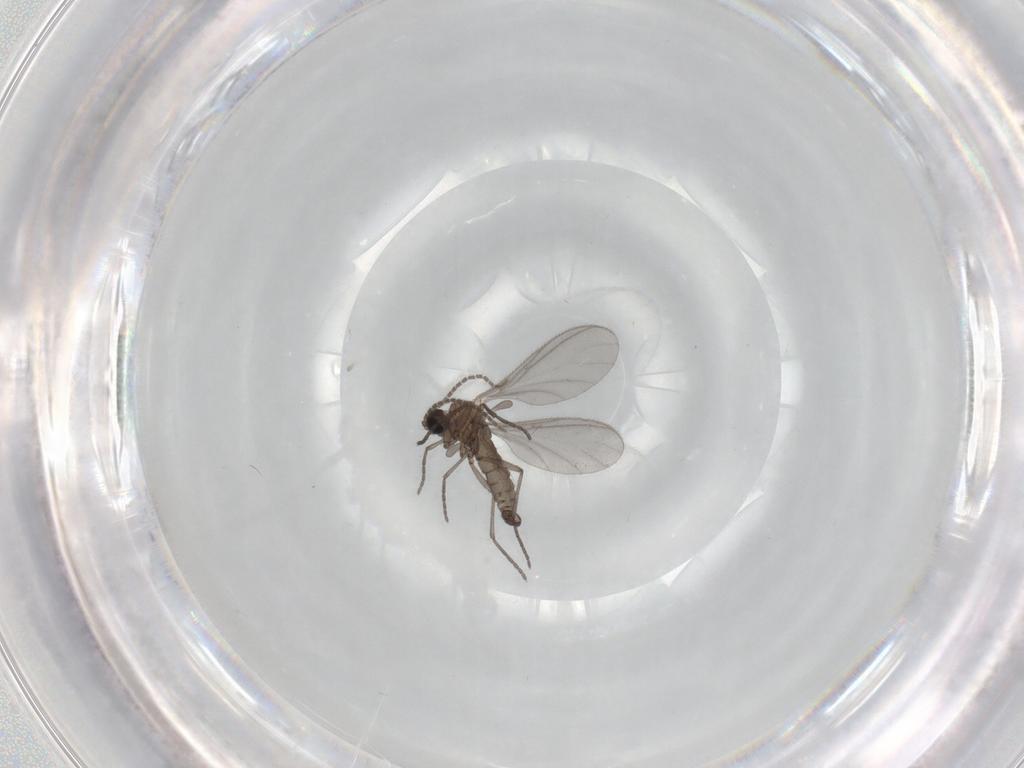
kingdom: Animalia
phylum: Arthropoda
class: Insecta
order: Diptera
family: Sciaridae
